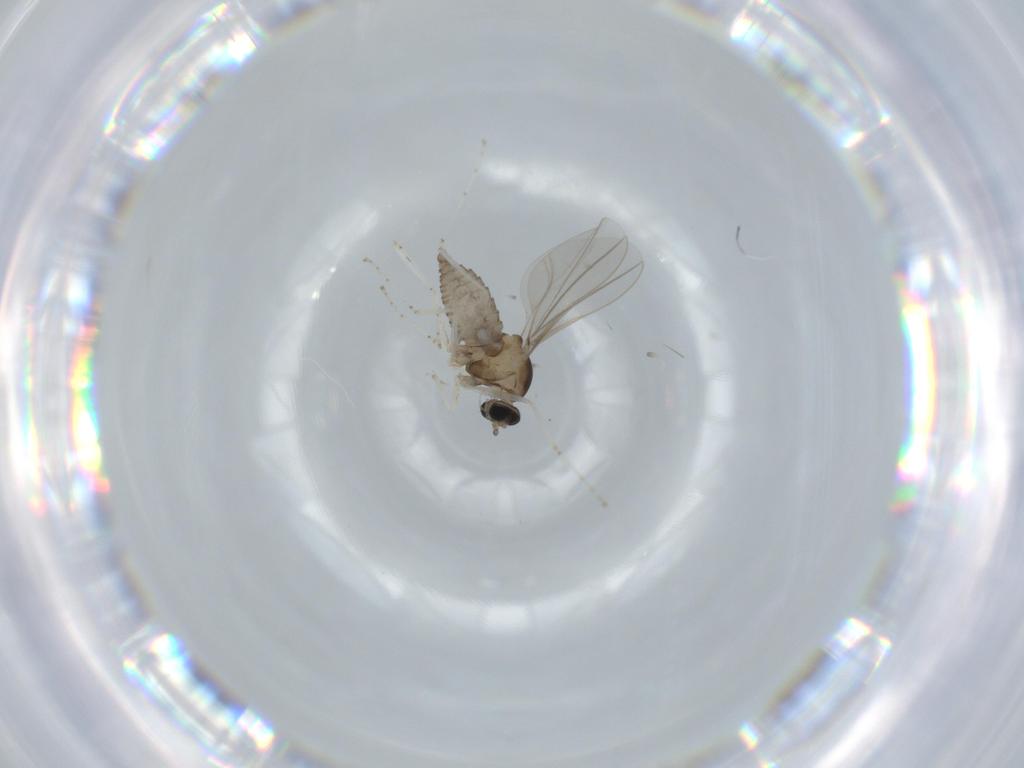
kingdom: Animalia
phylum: Arthropoda
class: Insecta
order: Diptera
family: Cecidomyiidae
